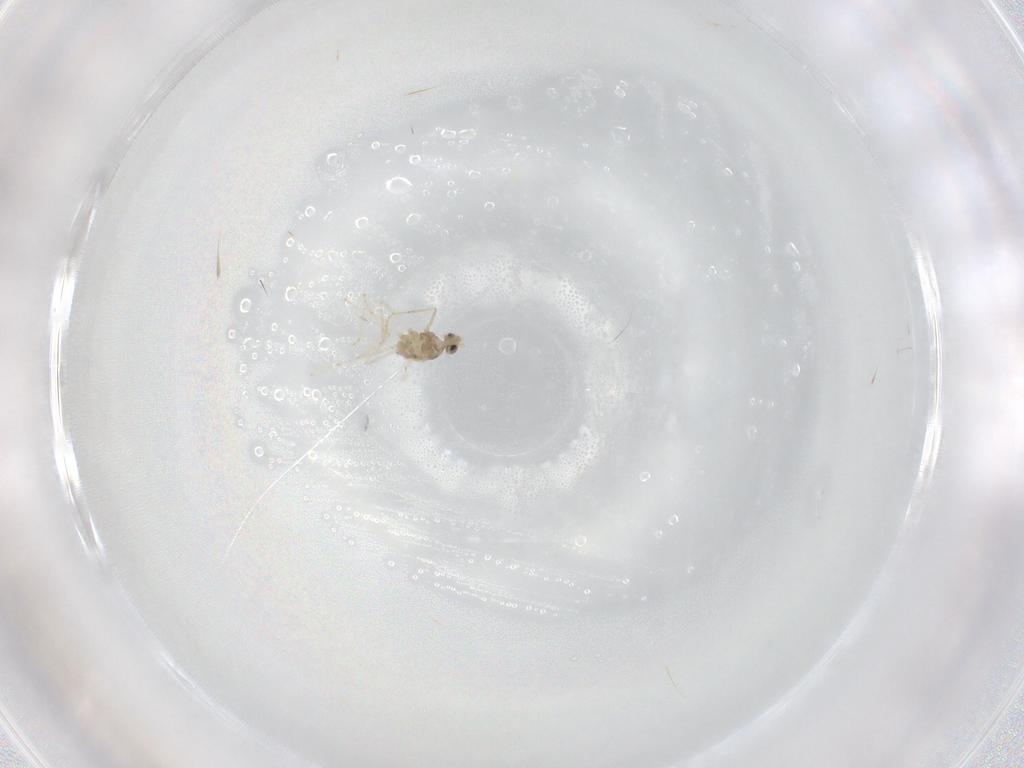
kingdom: Animalia
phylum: Arthropoda
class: Insecta
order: Diptera
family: Cecidomyiidae
